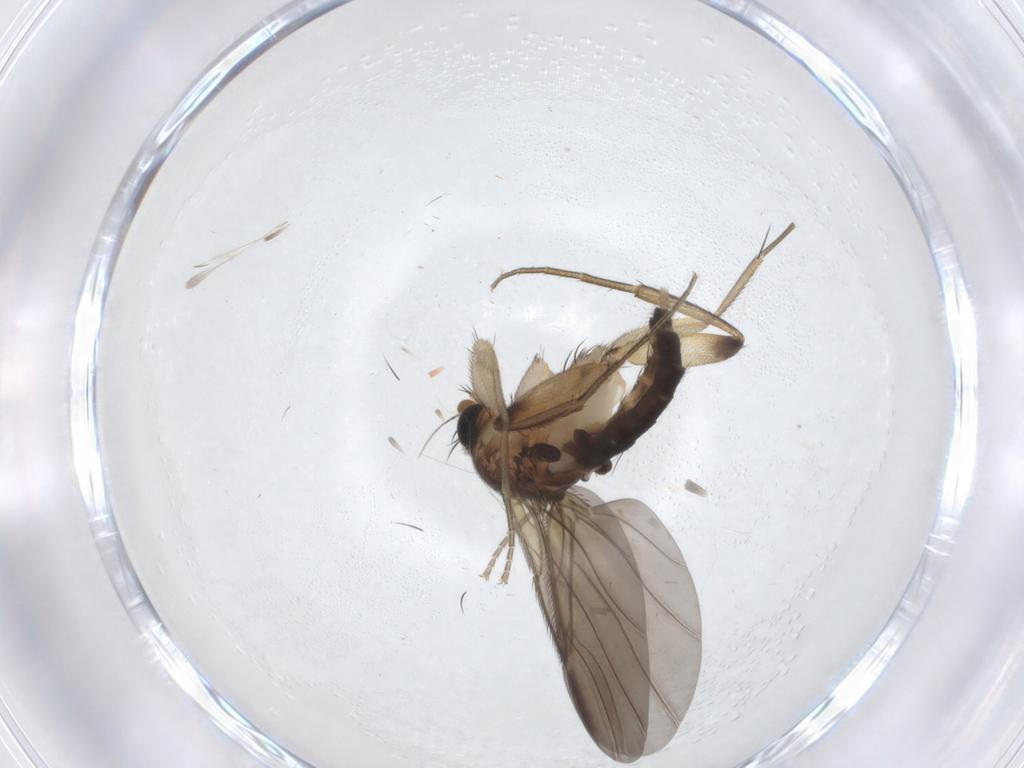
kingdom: Animalia
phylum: Arthropoda
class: Insecta
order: Diptera
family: Phoridae
